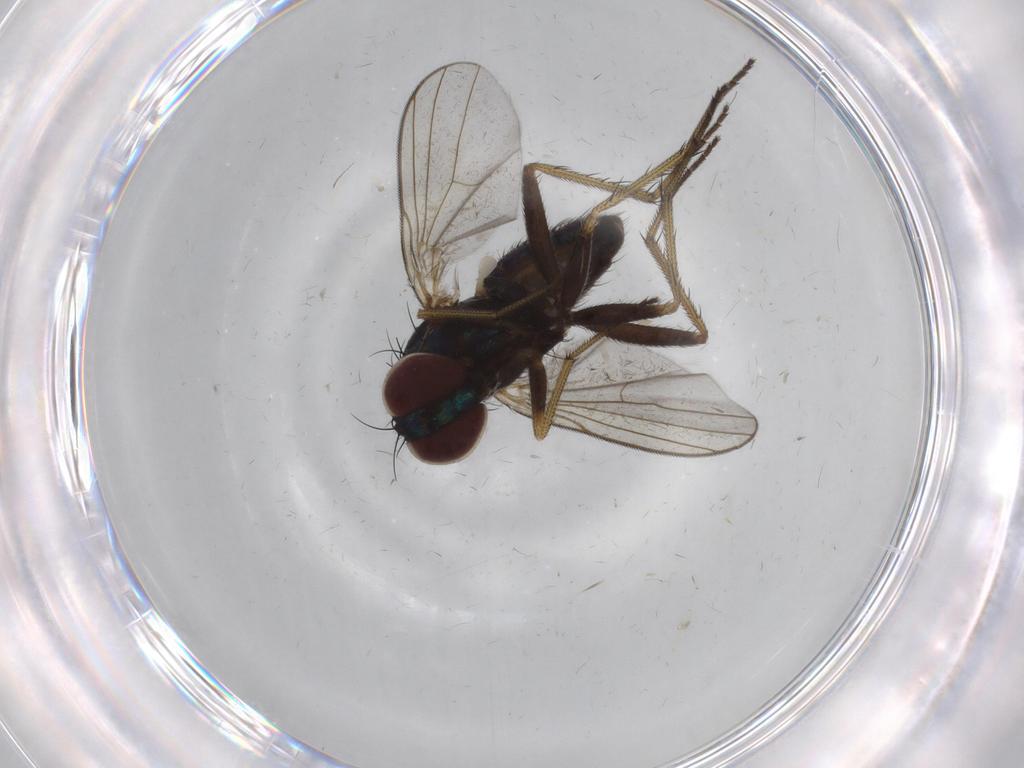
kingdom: Animalia
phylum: Arthropoda
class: Insecta
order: Diptera
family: Dolichopodidae
